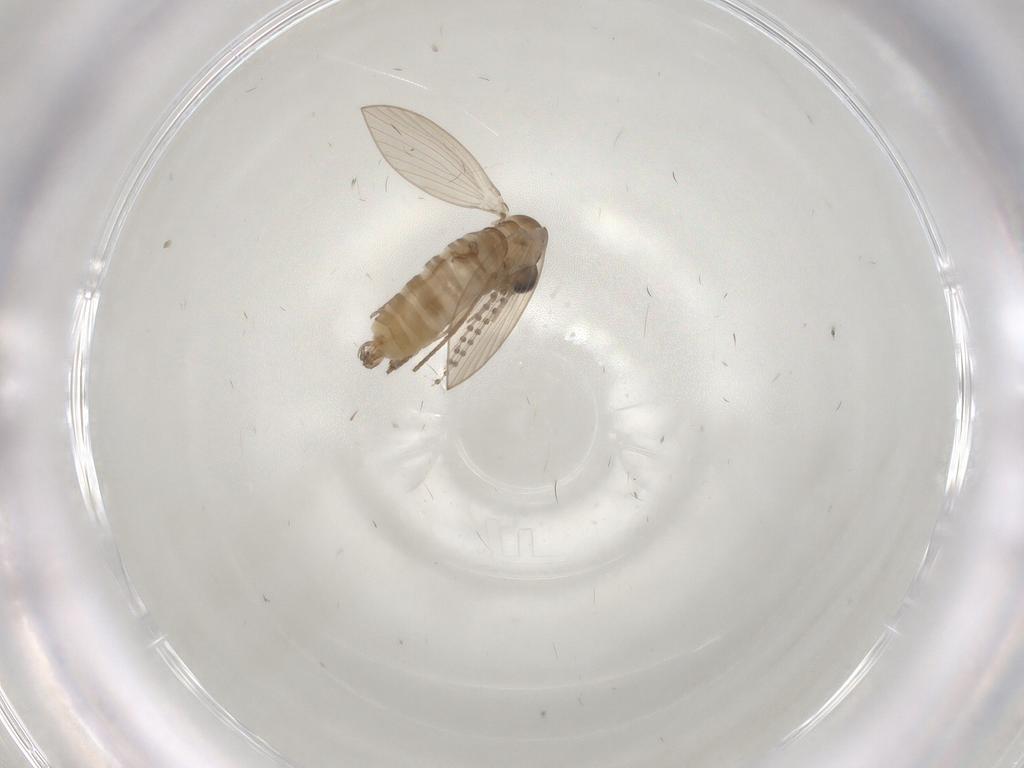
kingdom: Animalia
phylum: Arthropoda
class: Insecta
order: Diptera
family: Psychodidae
